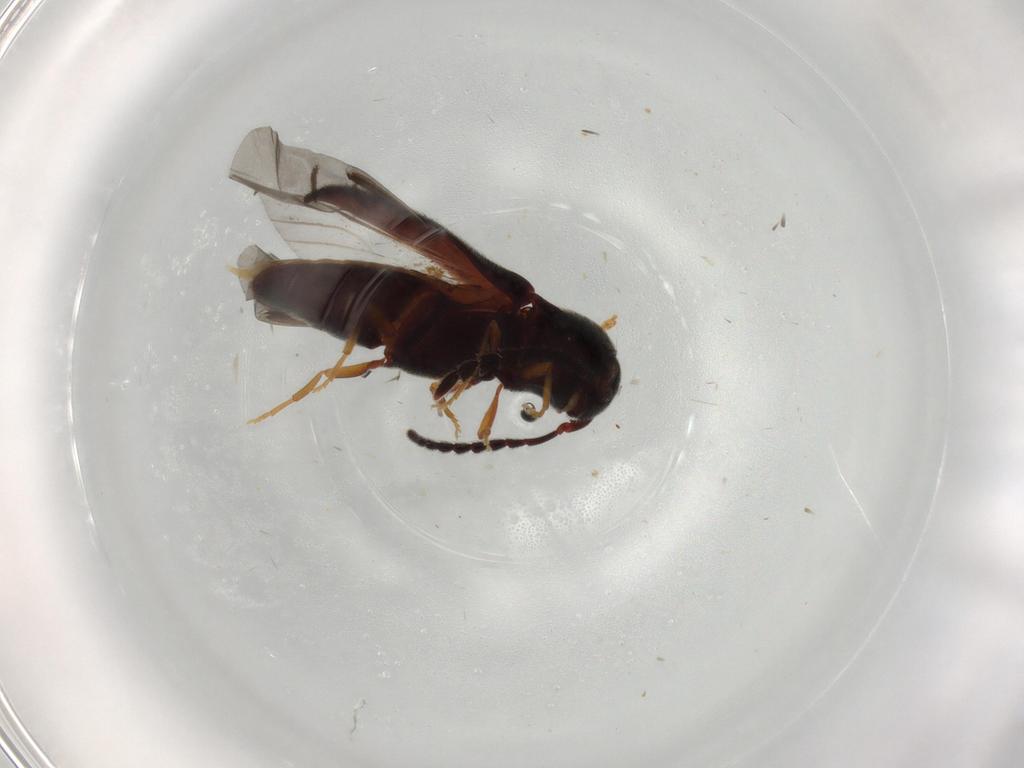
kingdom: Animalia
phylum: Arthropoda
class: Insecta
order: Coleoptera
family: Eucnemidae
